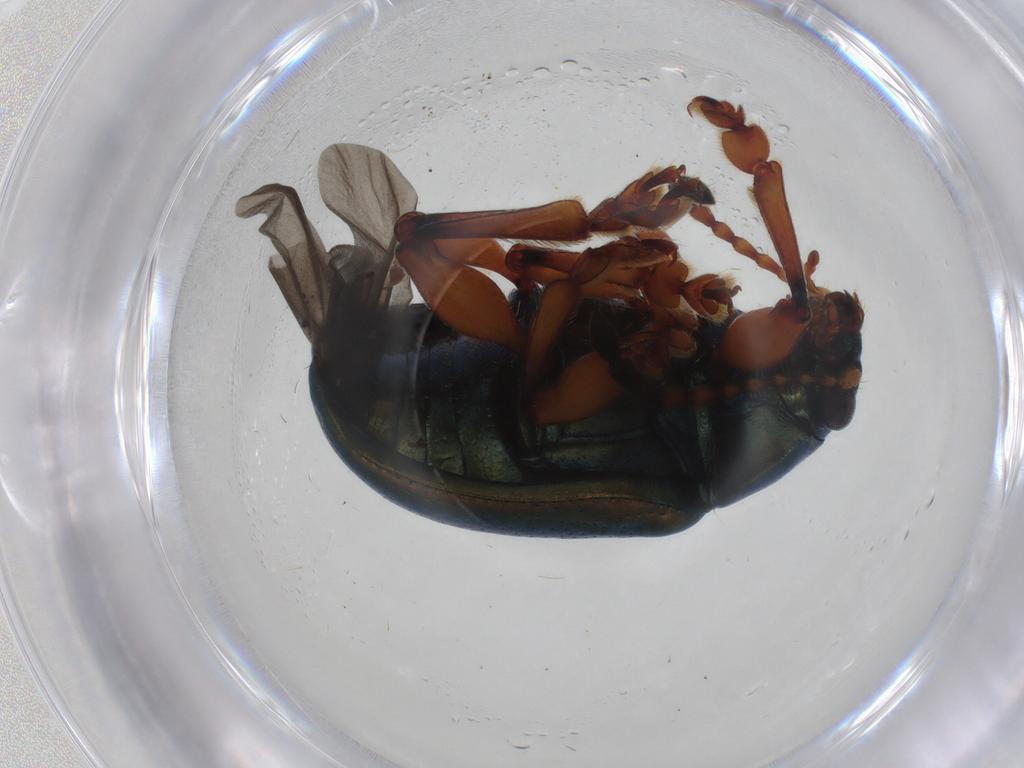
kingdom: Animalia
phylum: Arthropoda
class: Insecta
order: Coleoptera
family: Chrysomelidae
